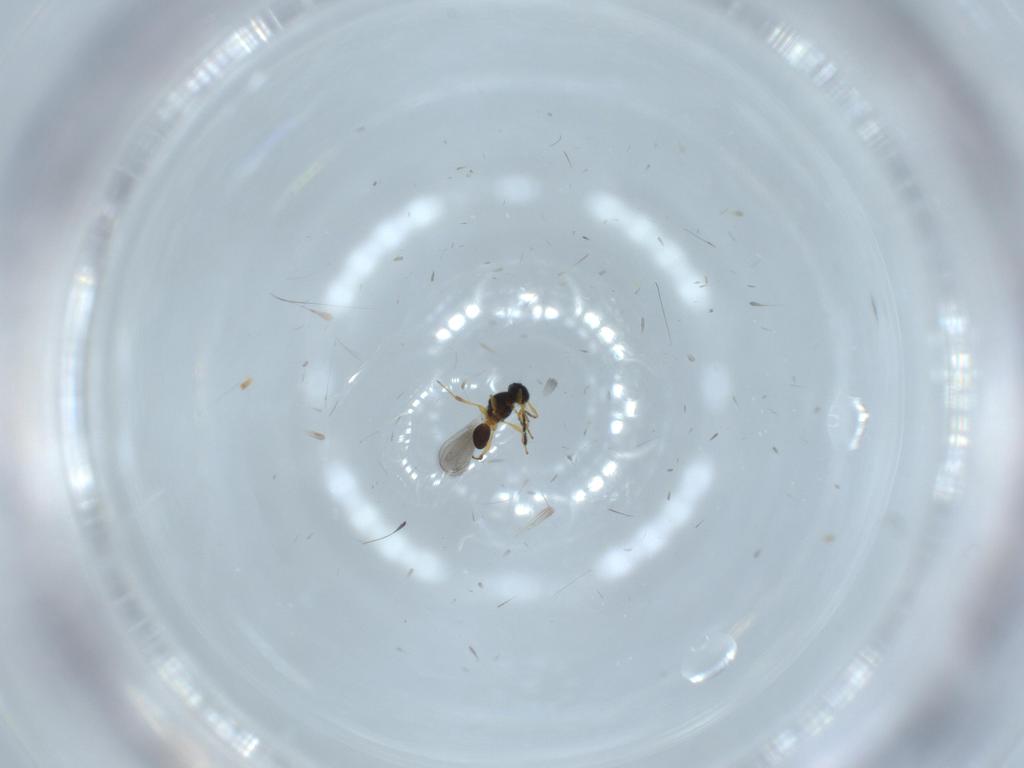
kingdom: Animalia
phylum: Arthropoda
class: Insecta
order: Hymenoptera
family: Platygastridae
